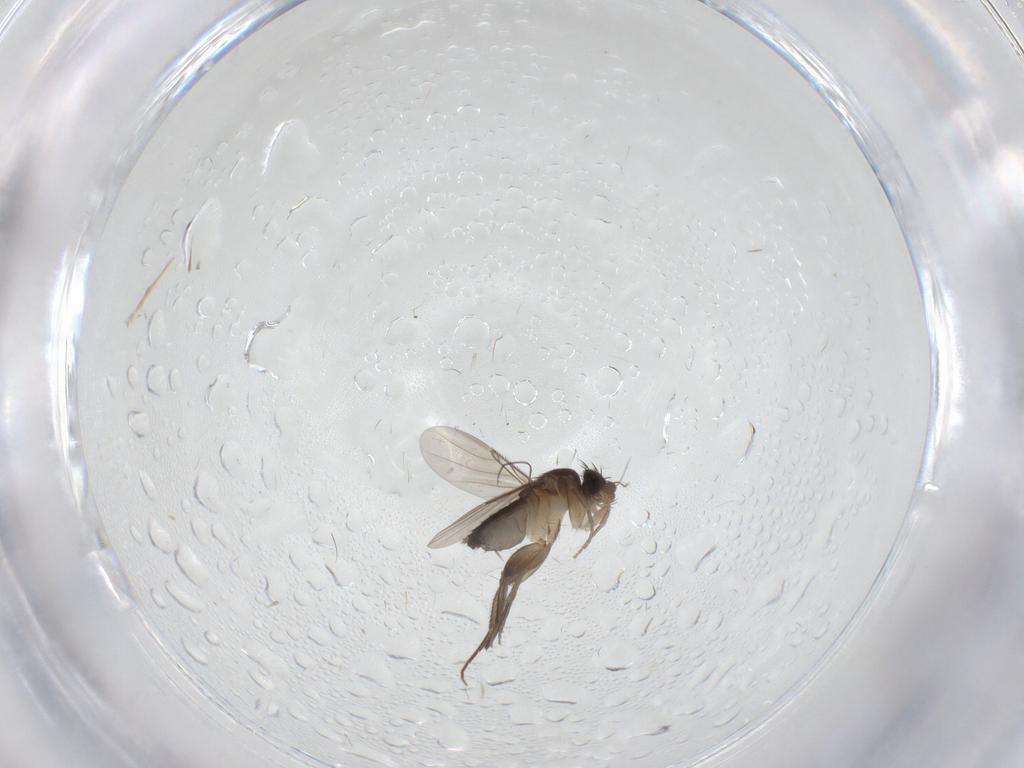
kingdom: Animalia
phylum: Arthropoda
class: Insecta
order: Diptera
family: Phoridae
